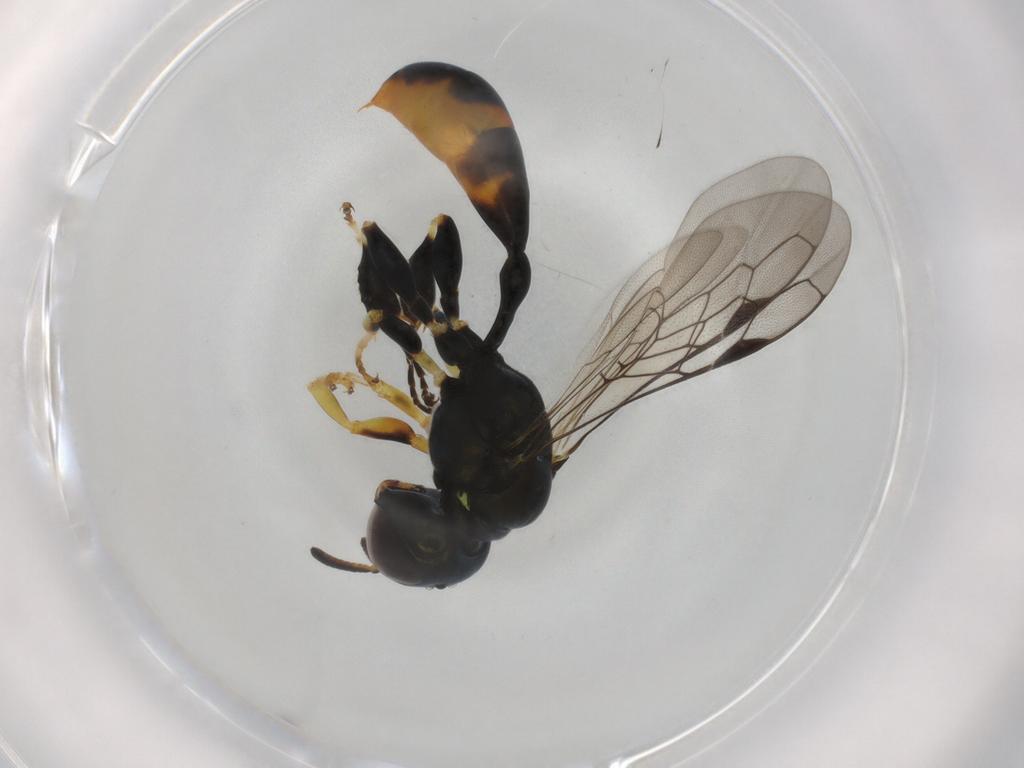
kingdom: Animalia
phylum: Arthropoda
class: Insecta
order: Hymenoptera
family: Crabronidae
